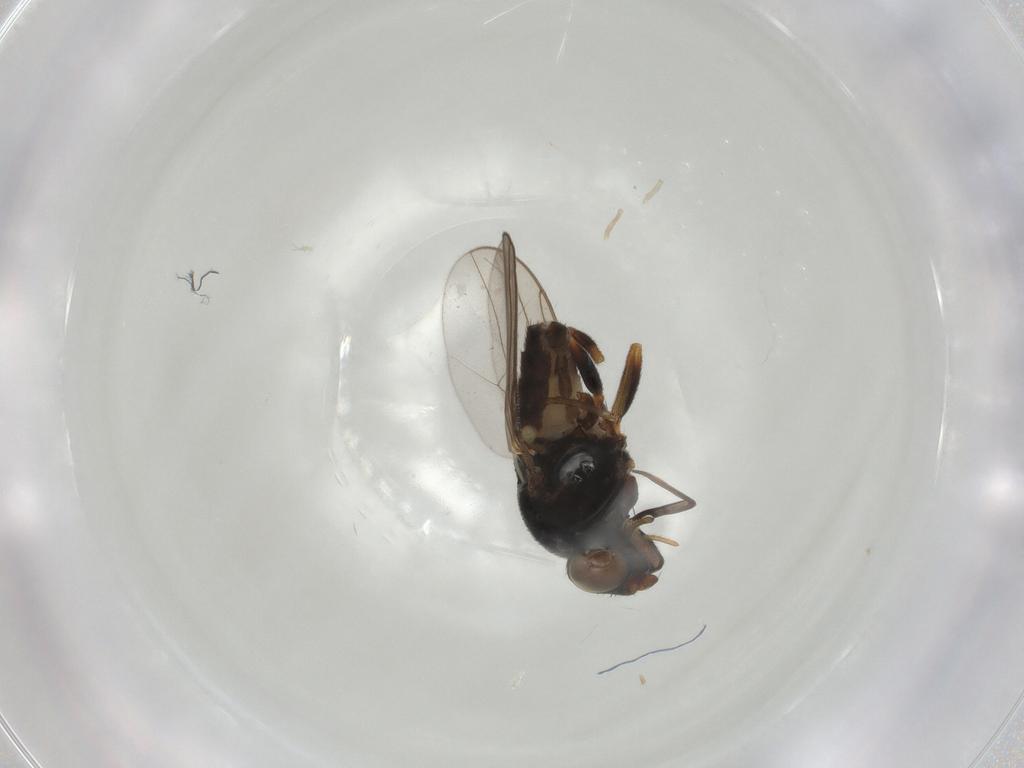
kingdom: Animalia
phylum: Arthropoda
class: Insecta
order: Diptera
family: Chloropidae
